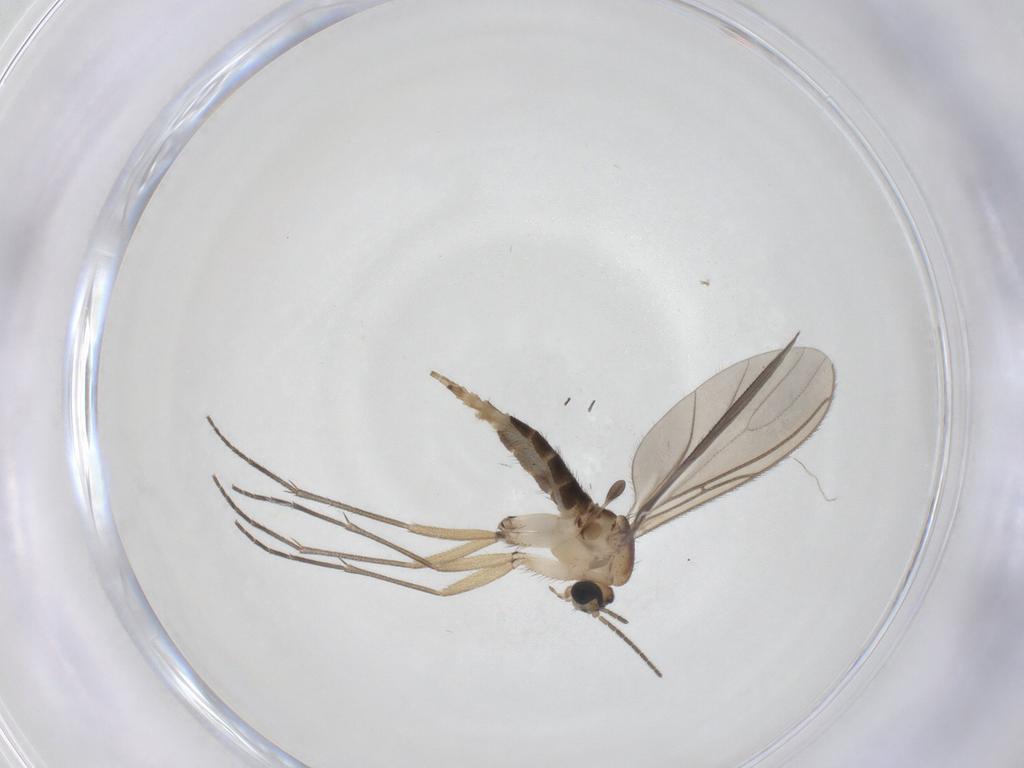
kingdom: Animalia
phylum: Arthropoda
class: Insecta
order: Diptera
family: Sciaridae
